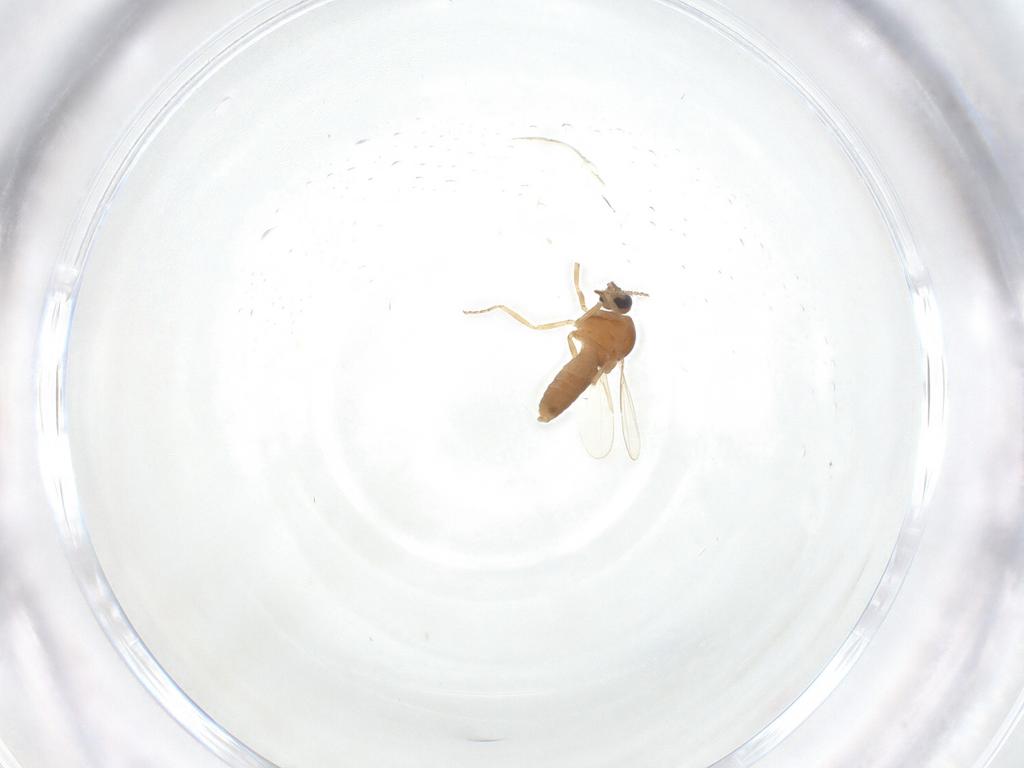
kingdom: Animalia
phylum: Arthropoda
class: Insecta
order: Diptera
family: Ceratopogonidae
